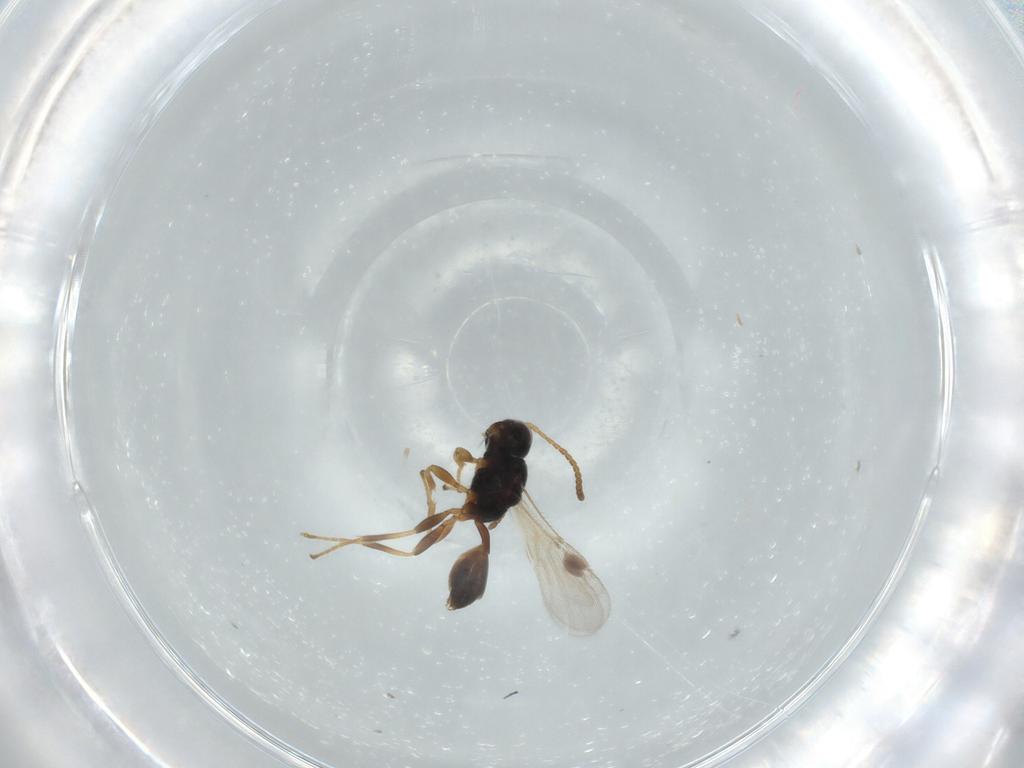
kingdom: Animalia
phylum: Arthropoda
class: Insecta
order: Hymenoptera
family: Braconidae
